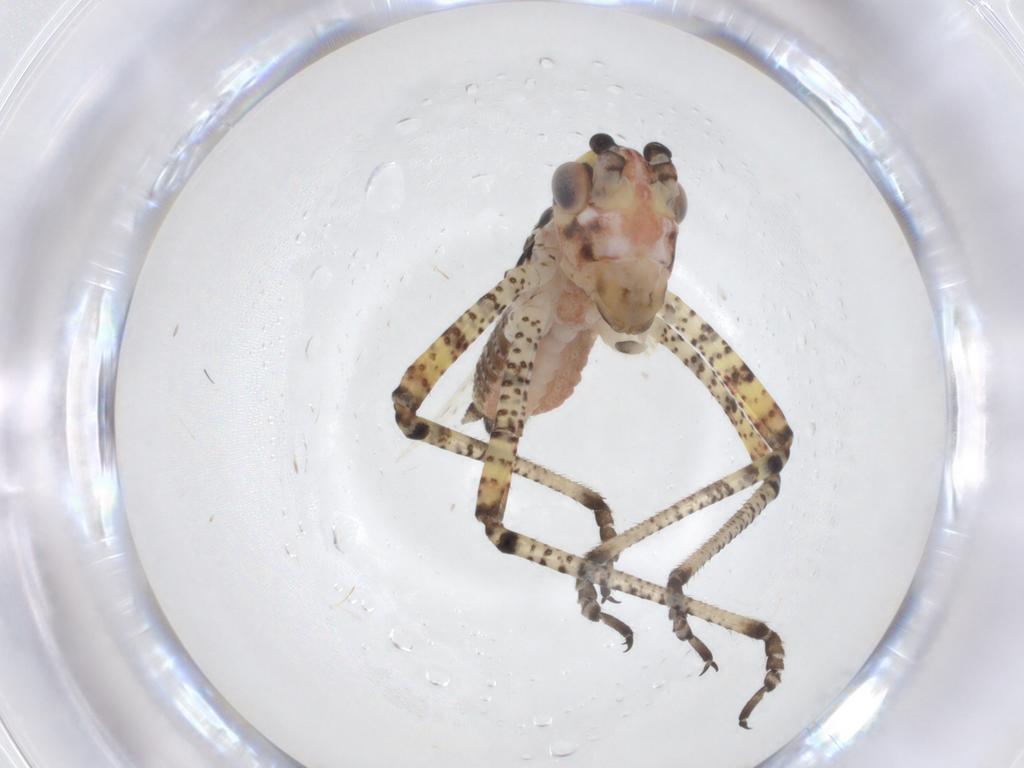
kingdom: Animalia
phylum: Arthropoda
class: Insecta
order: Orthoptera
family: Tettigoniidae
